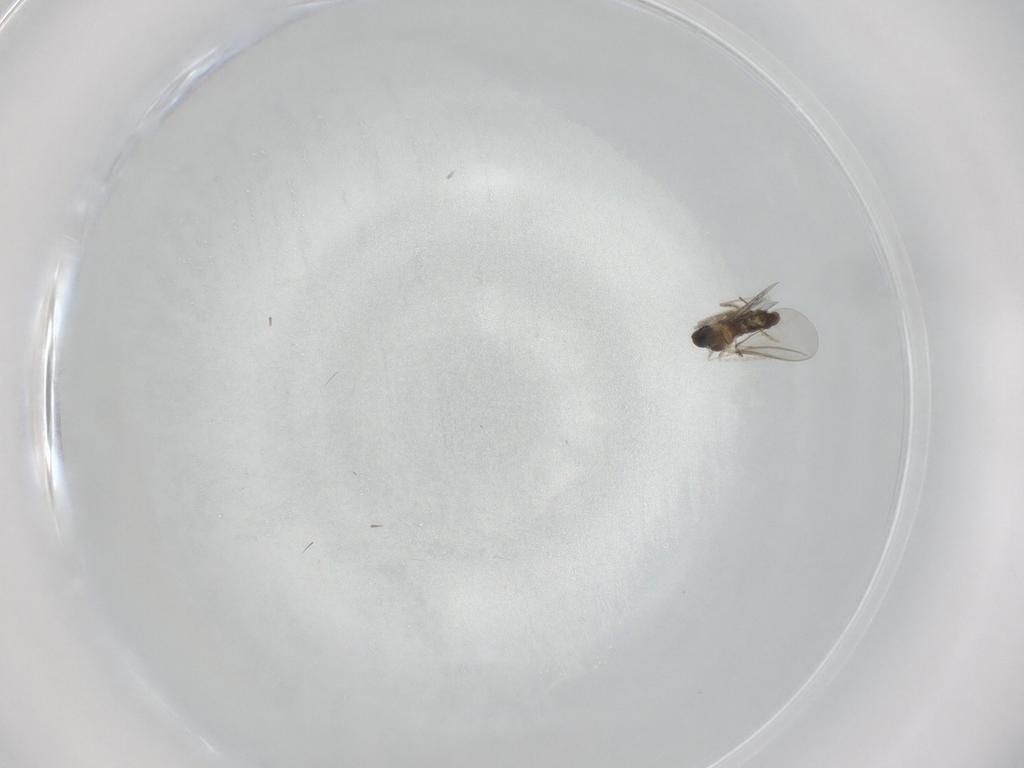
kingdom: Animalia
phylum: Arthropoda
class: Insecta
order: Diptera
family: Cecidomyiidae
